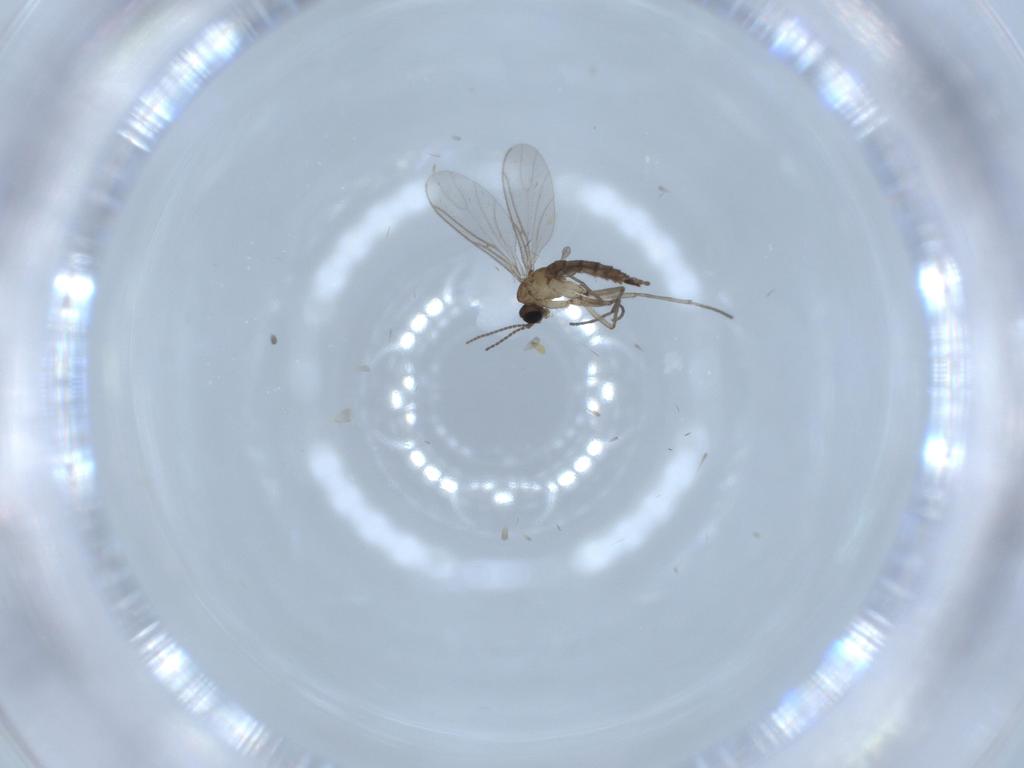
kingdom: Animalia
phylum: Arthropoda
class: Insecta
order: Diptera
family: Sciaridae
